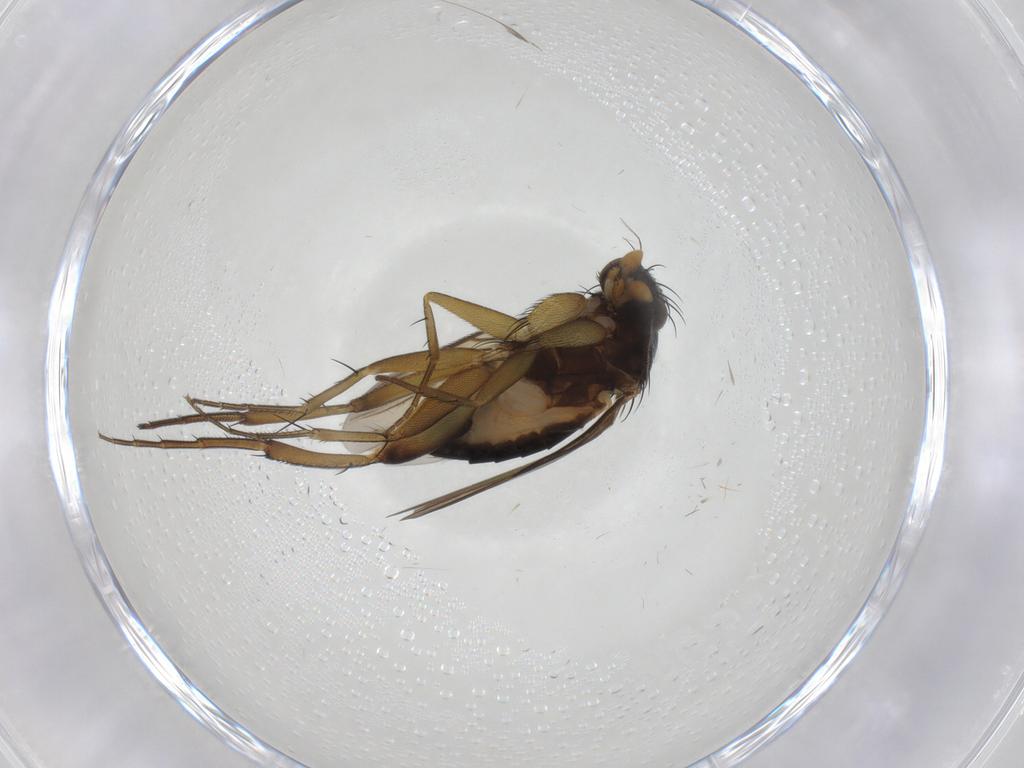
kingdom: Animalia
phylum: Arthropoda
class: Insecta
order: Diptera
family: Phoridae
